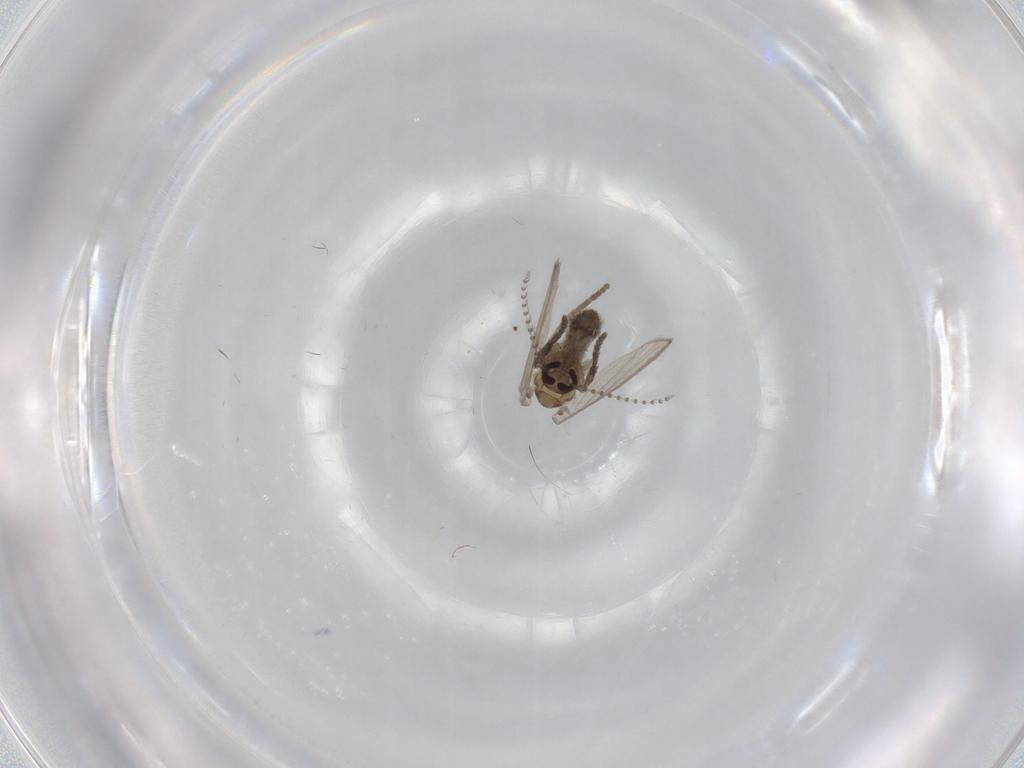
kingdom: Animalia
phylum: Arthropoda
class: Insecta
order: Diptera
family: Psychodidae
